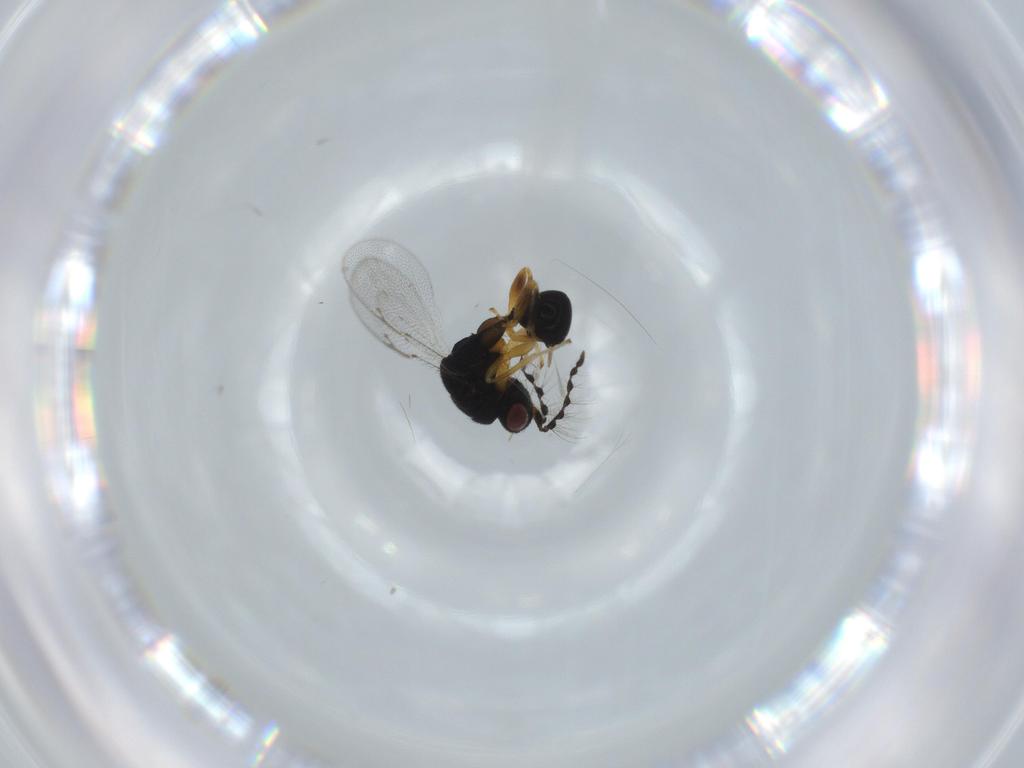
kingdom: Animalia
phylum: Arthropoda
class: Insecta
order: Hymenoptera
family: Eurytomidae
